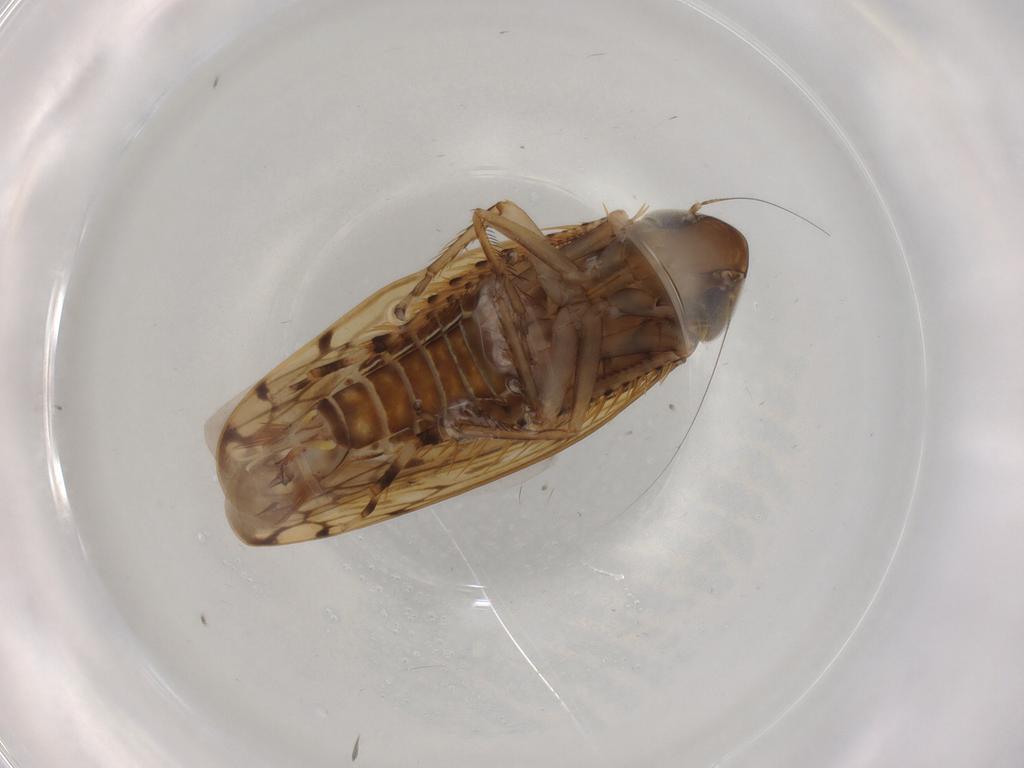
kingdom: Animalia
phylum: Arthropoda
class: Insecta
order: Hemiptera
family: Cicadellidae
